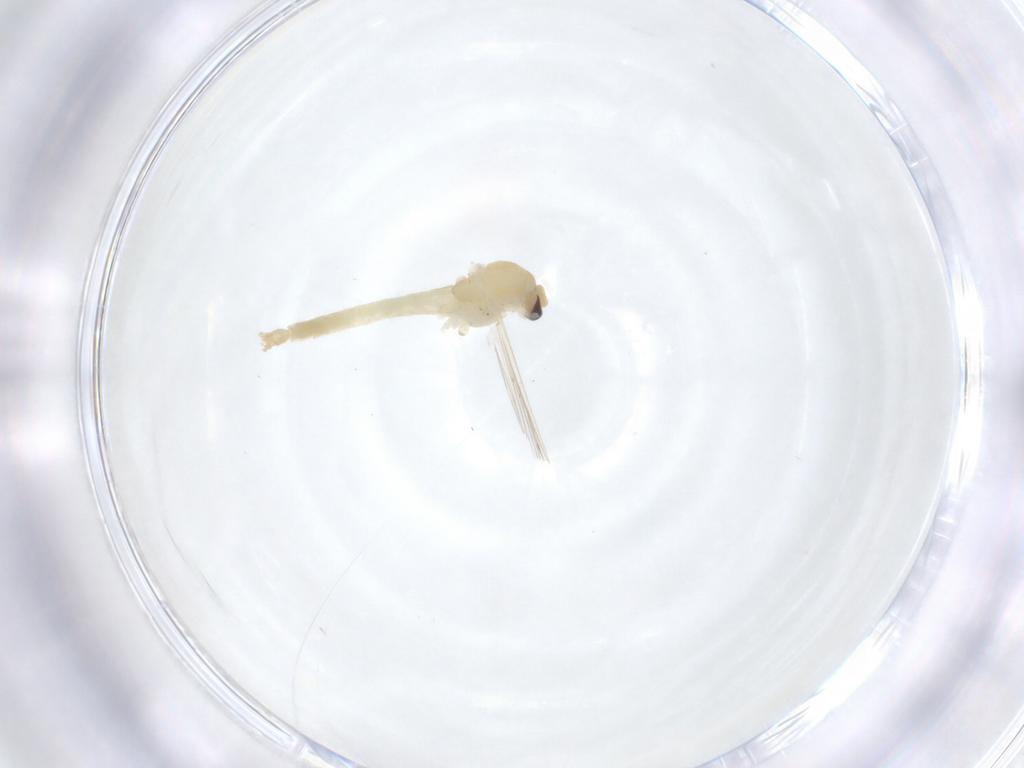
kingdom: Animalia
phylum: Arthropoda
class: Insecta
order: Diptera
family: Chironomidae
